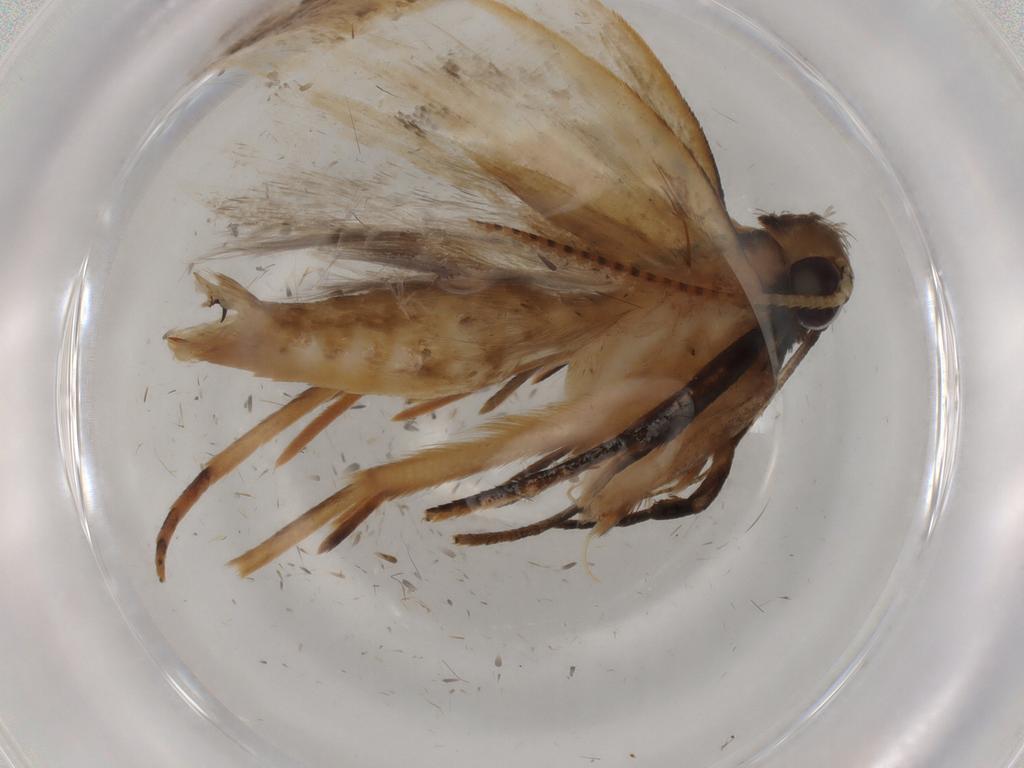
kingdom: Animalia
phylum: Arthropoda
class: Insecta
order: Lepidoptera
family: Gelechiidae
